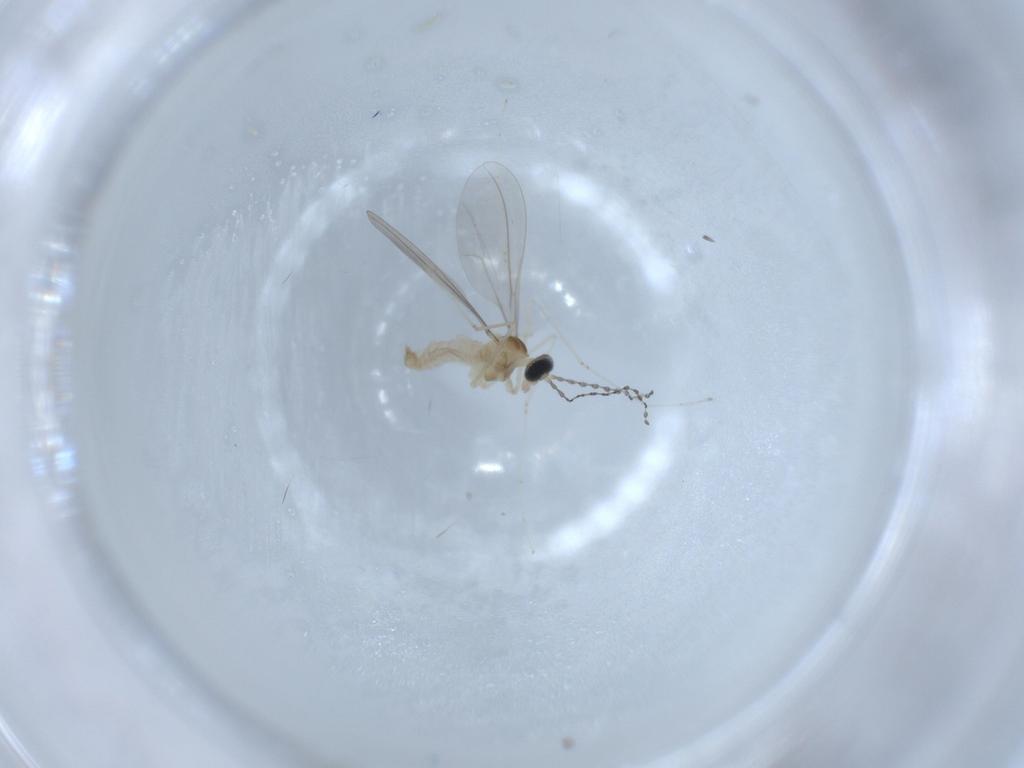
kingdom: Animalia
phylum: Arthropoda
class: Insecta
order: Diptera
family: Cecidomyiidae
